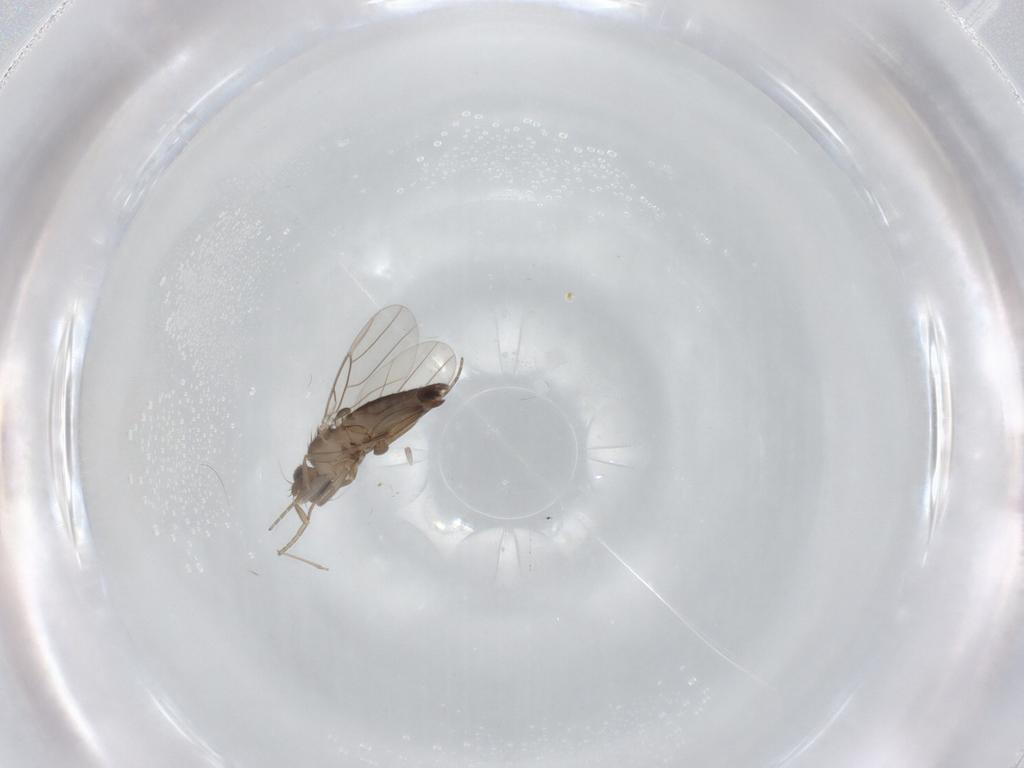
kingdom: Animalia
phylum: Arthropoda
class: Insecta
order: Diptera
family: Phoridae
